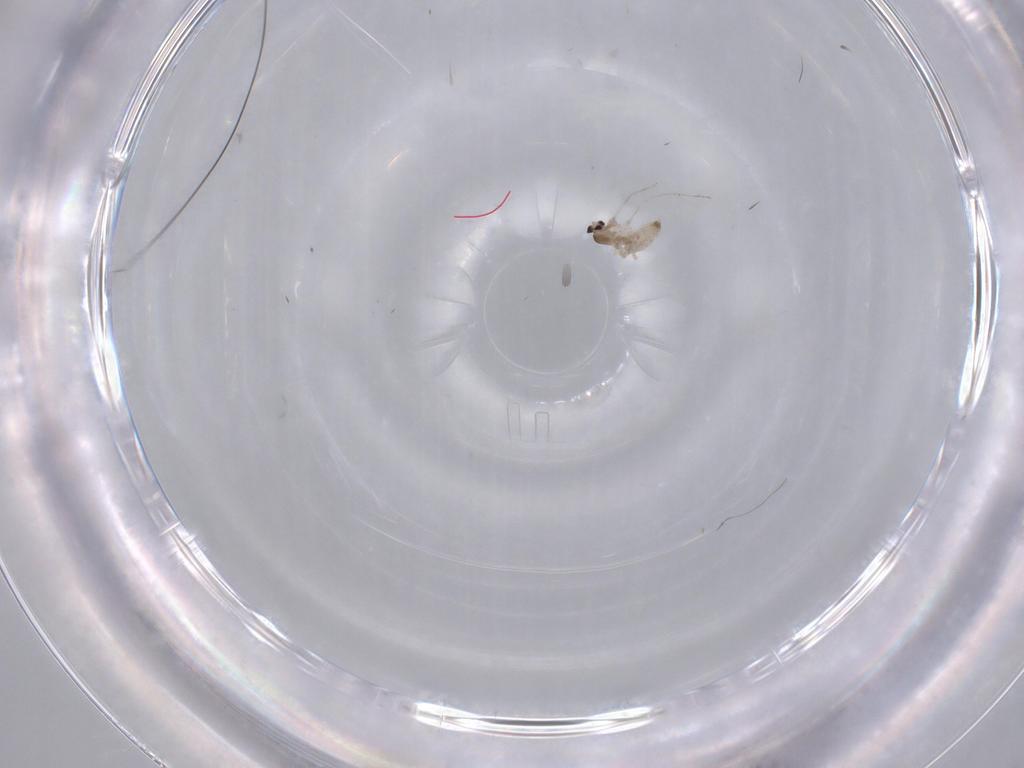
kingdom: Animalia
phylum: Arthropoda
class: Insecta
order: Diptera
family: Cecidomyiidae
